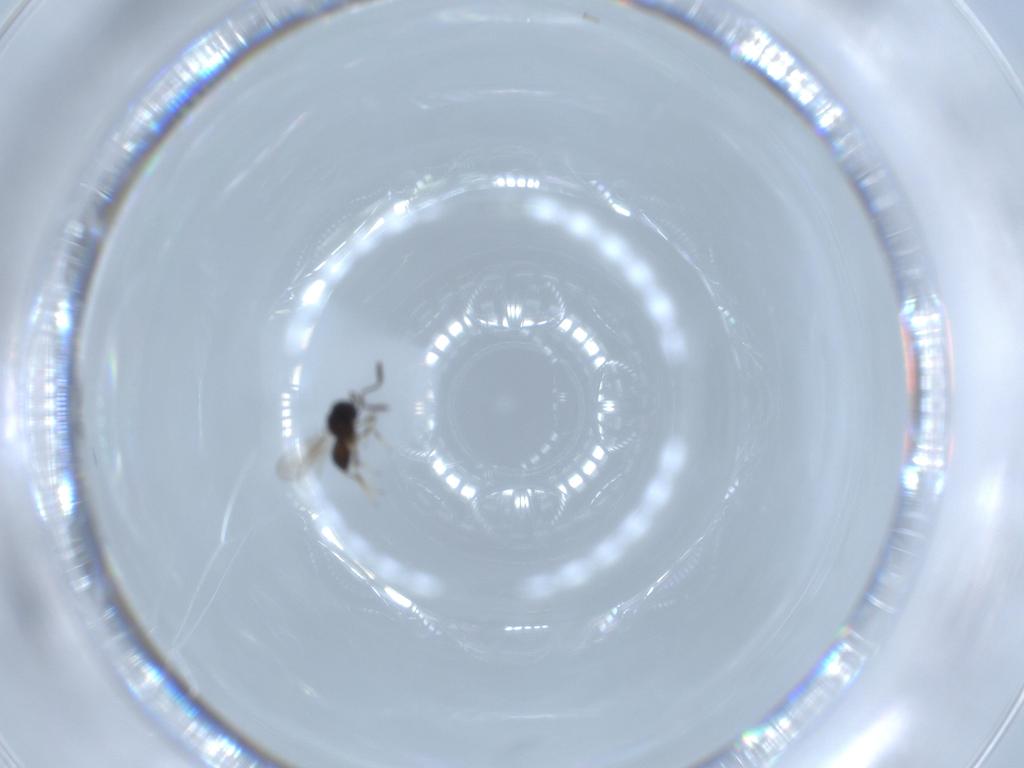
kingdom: Animalia
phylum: Arthropoda
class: Insecta
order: Hymenoptera
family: Scelionidae
